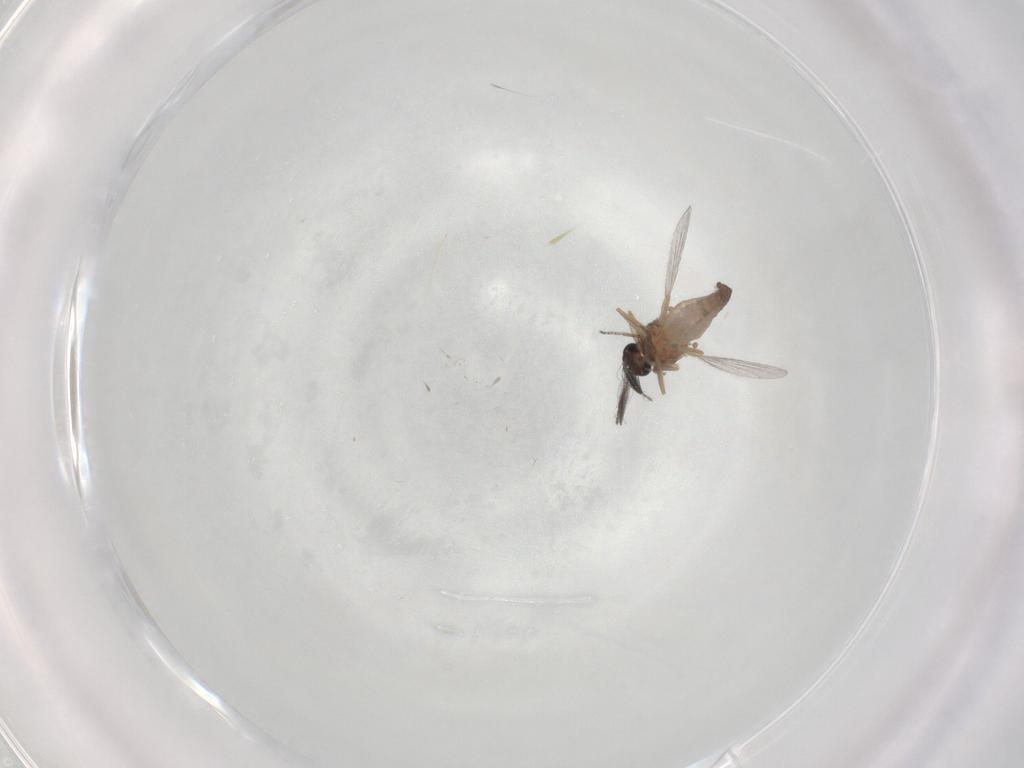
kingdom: Animalia
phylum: Arthropoda
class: Insecta
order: Diptera
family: Ceratopogonidae
